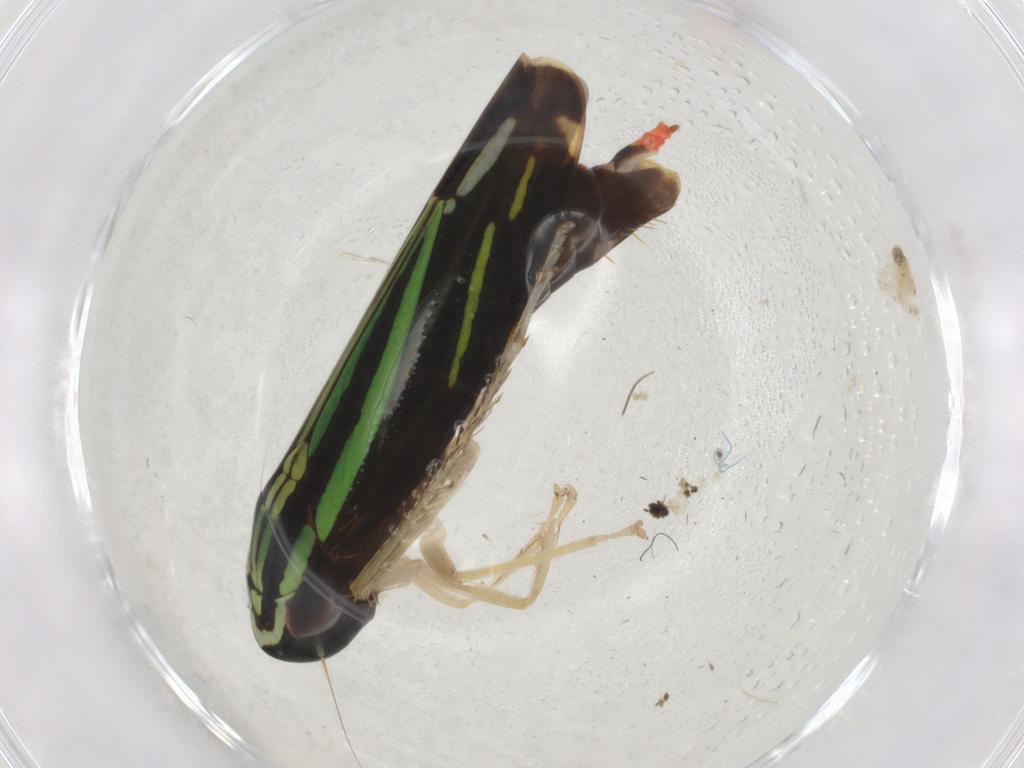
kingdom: Animalia
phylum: Arthropoda
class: Insecta
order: Hemiptera
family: Cicadellidae
